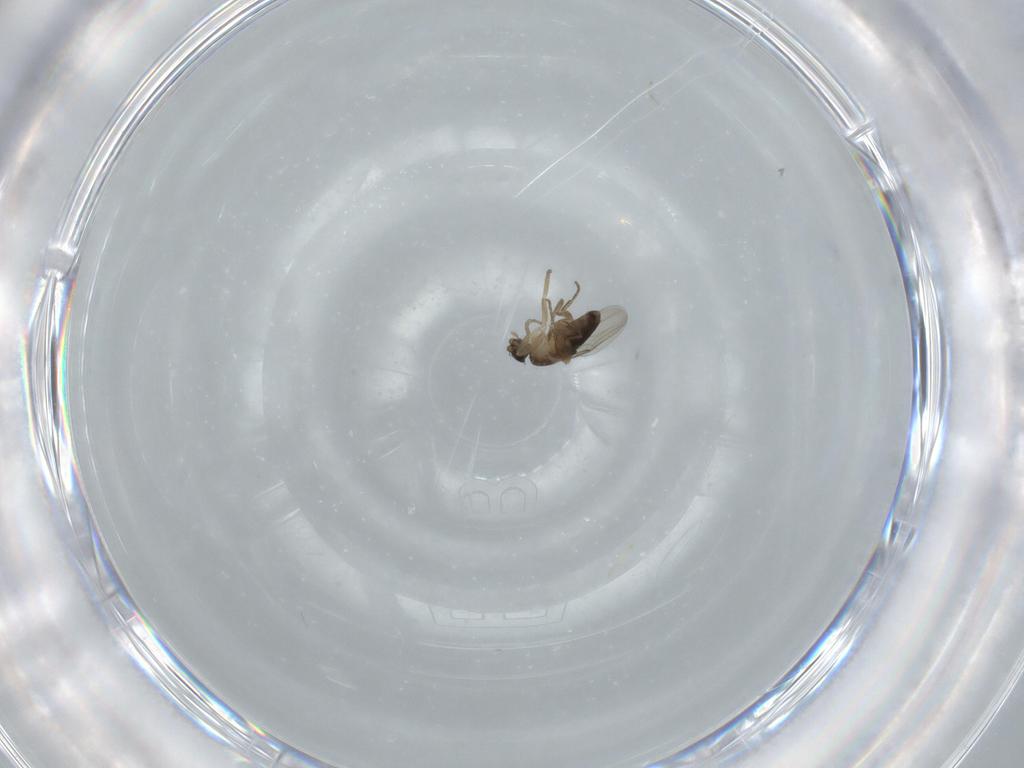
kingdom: Animalia
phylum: Arthropoda
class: Insecta
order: Diptera
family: Phoridae
